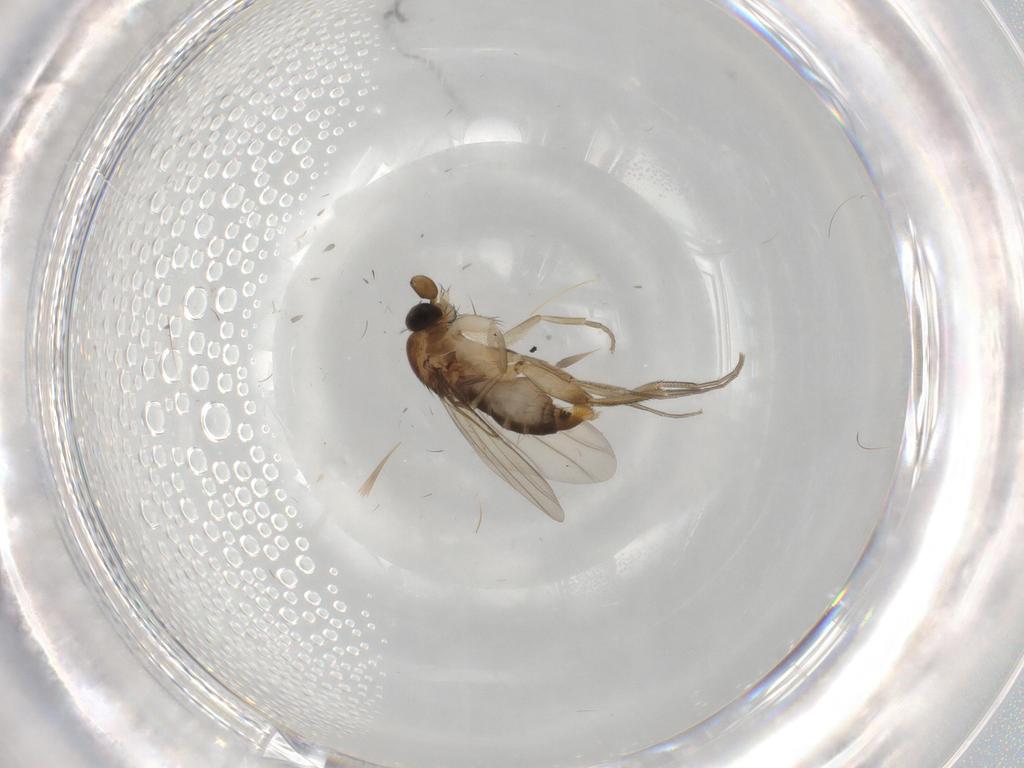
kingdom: Animalia
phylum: Arthropoda
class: Insecta
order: Diptera
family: Phoridae
